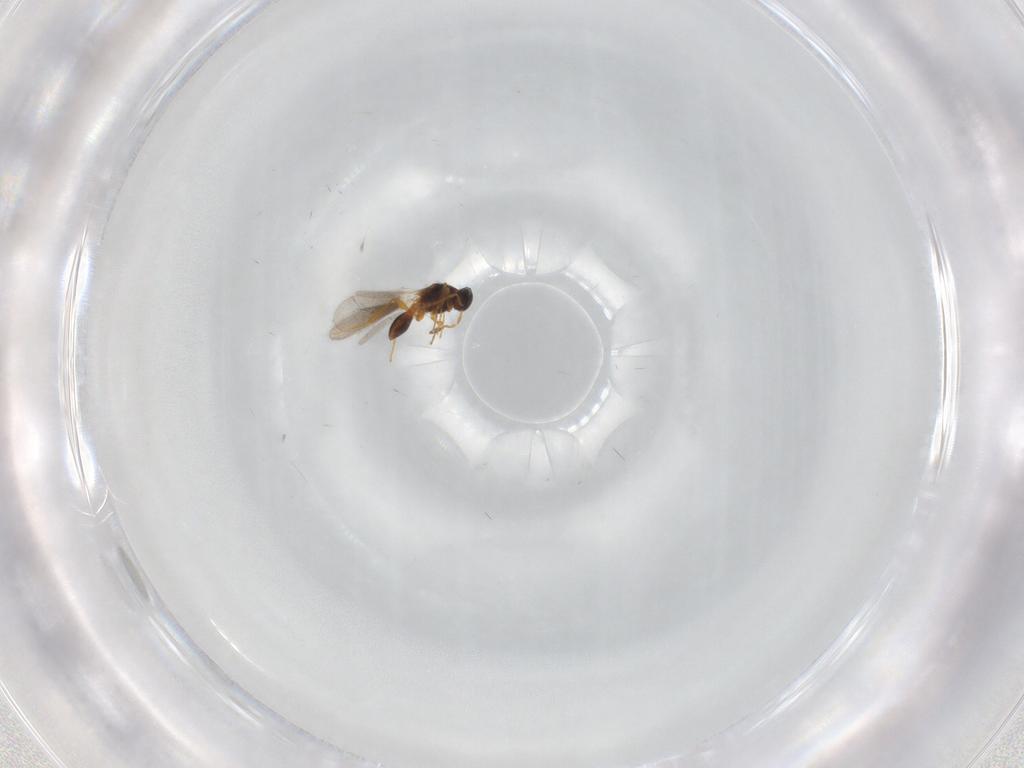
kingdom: Animalia
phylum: Arthropoda
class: Insecta
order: Hymenoptera
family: Platygastridae
